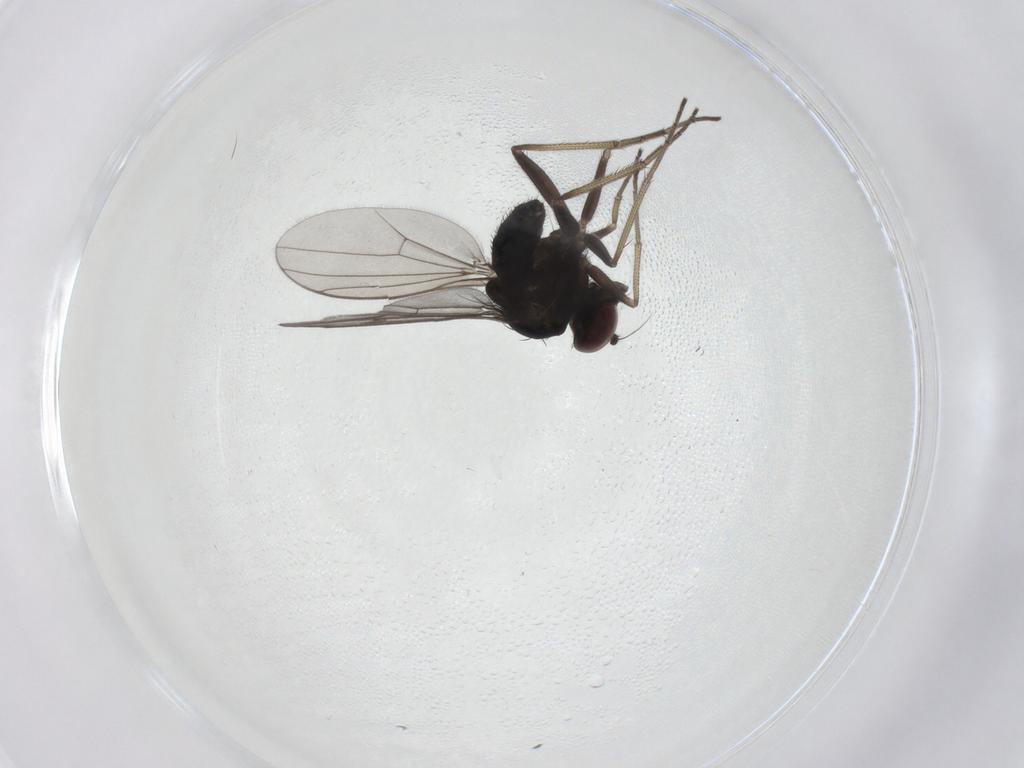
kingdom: Animalia
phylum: Arthropoda
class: Insecta
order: Diptera
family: Dolichopodidae
